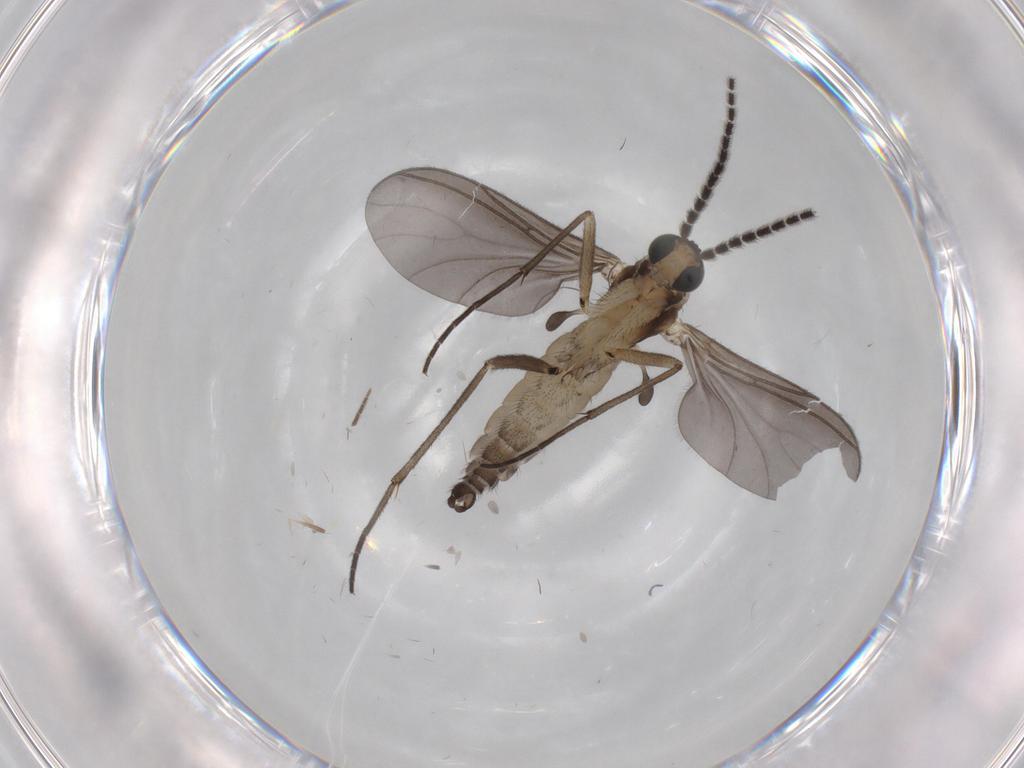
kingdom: Animalia
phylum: Arthropoda
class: Insecta
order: Diptera
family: Sciaridae
